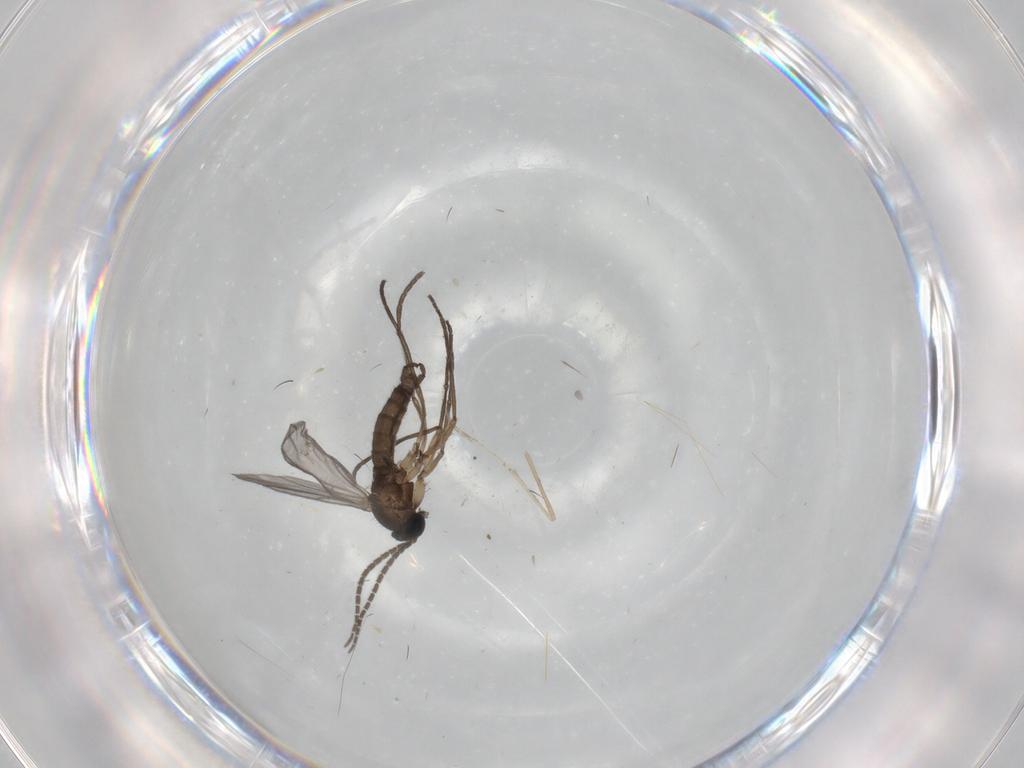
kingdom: Animalia
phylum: Arthropoda
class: Insecta
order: Diptera
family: Sciaridae
